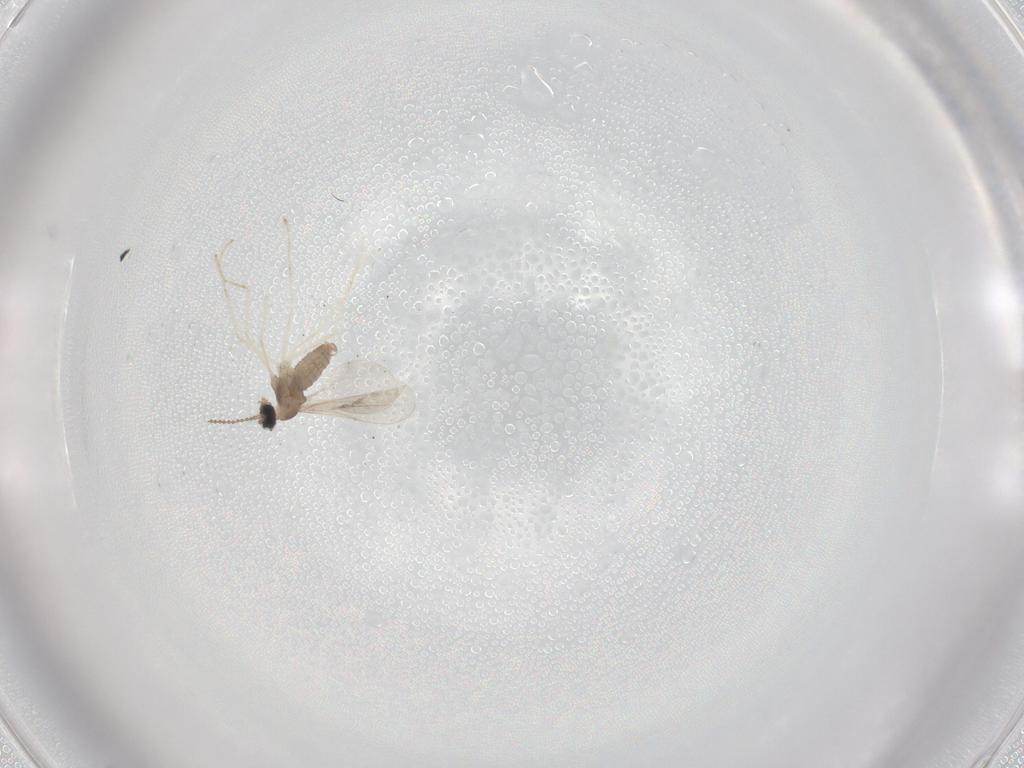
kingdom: Animalia
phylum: Arthropoda
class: Insecta
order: Diptera
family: Cecidomyiidae
